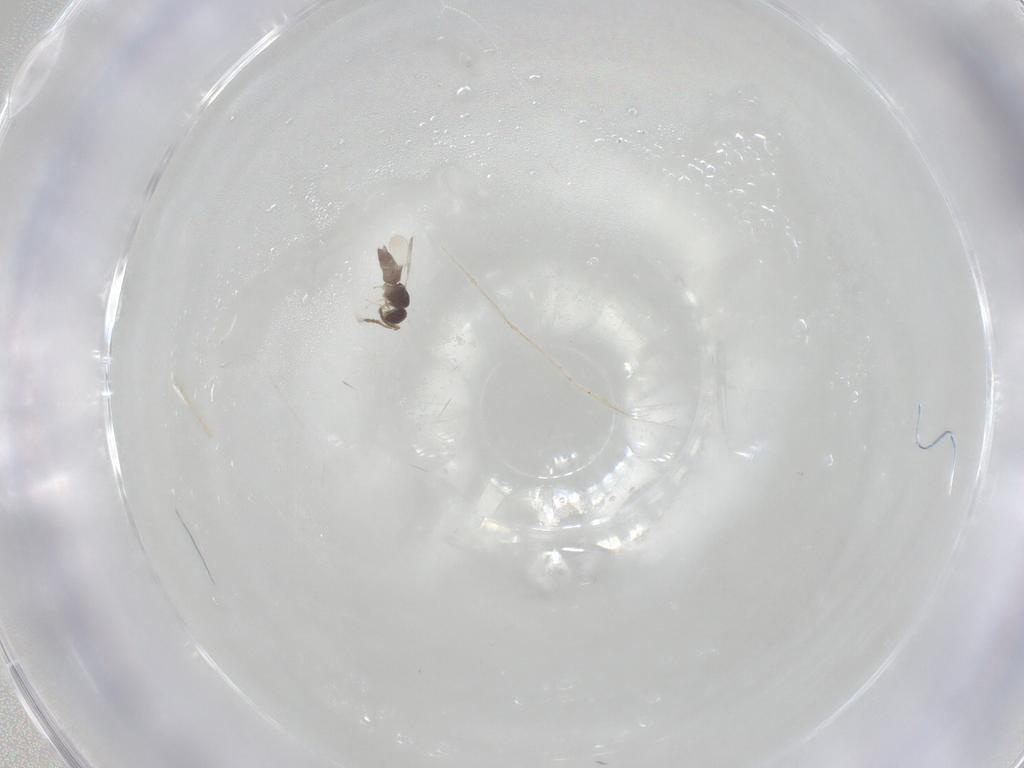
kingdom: Animalia
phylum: Arthropoda
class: Insecta
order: Hymenoptera
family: Formicidae
